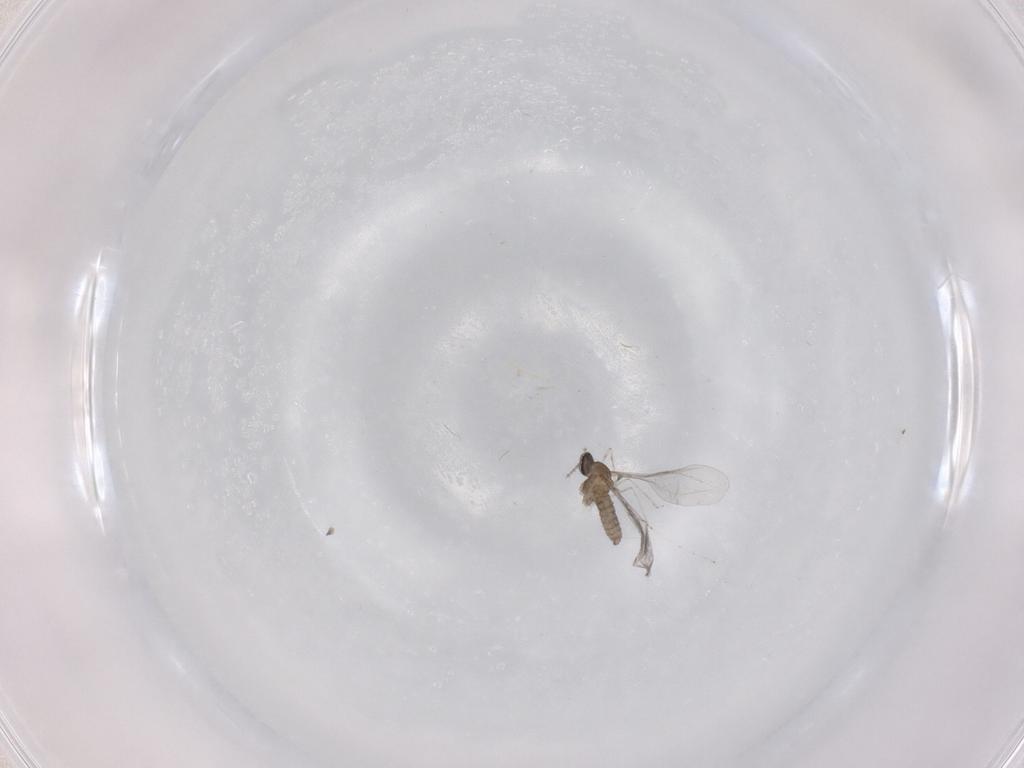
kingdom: Animalia
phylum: Arthropoda
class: Insecta
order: Diptera
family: Cecidomyiidae
